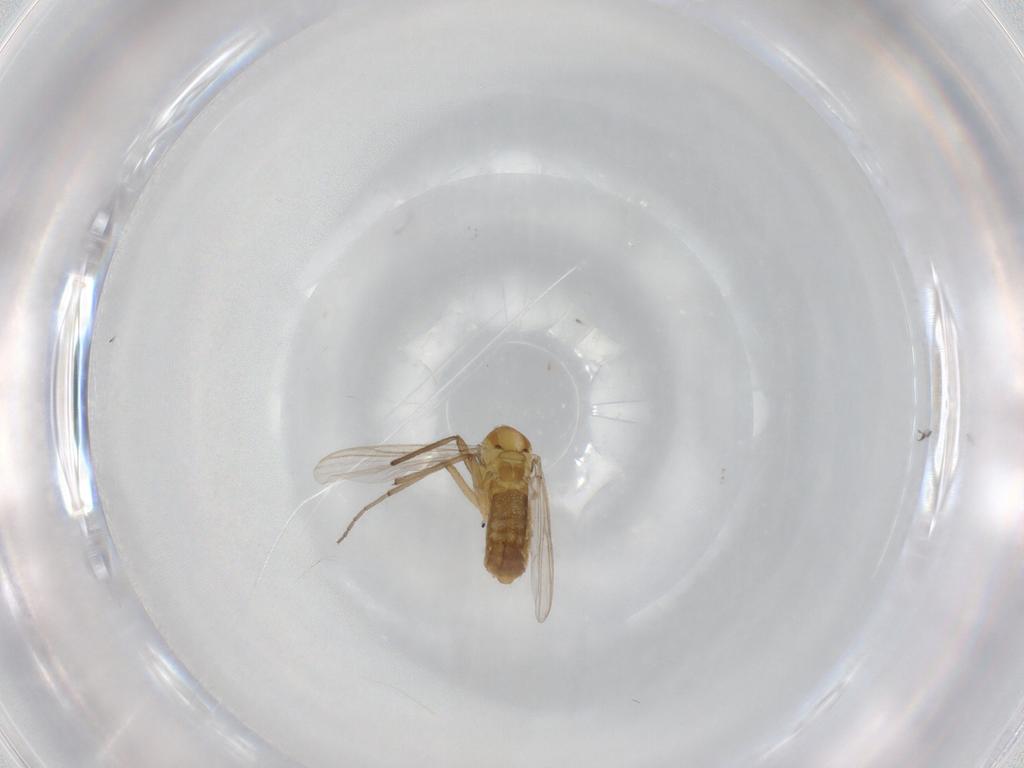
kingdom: Animalia
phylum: Arthropoda
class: Insecta
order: Diptera
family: Chironomidae
